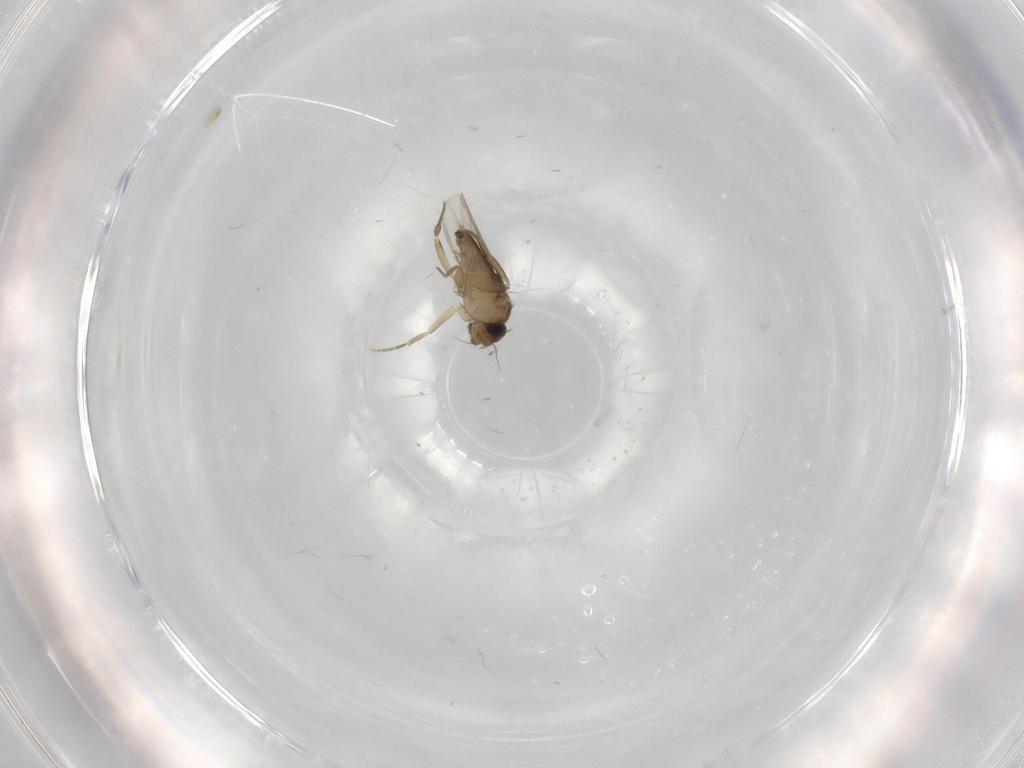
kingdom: Animalia
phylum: Arthropoda
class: Insecta
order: Diptera
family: Phoridae
